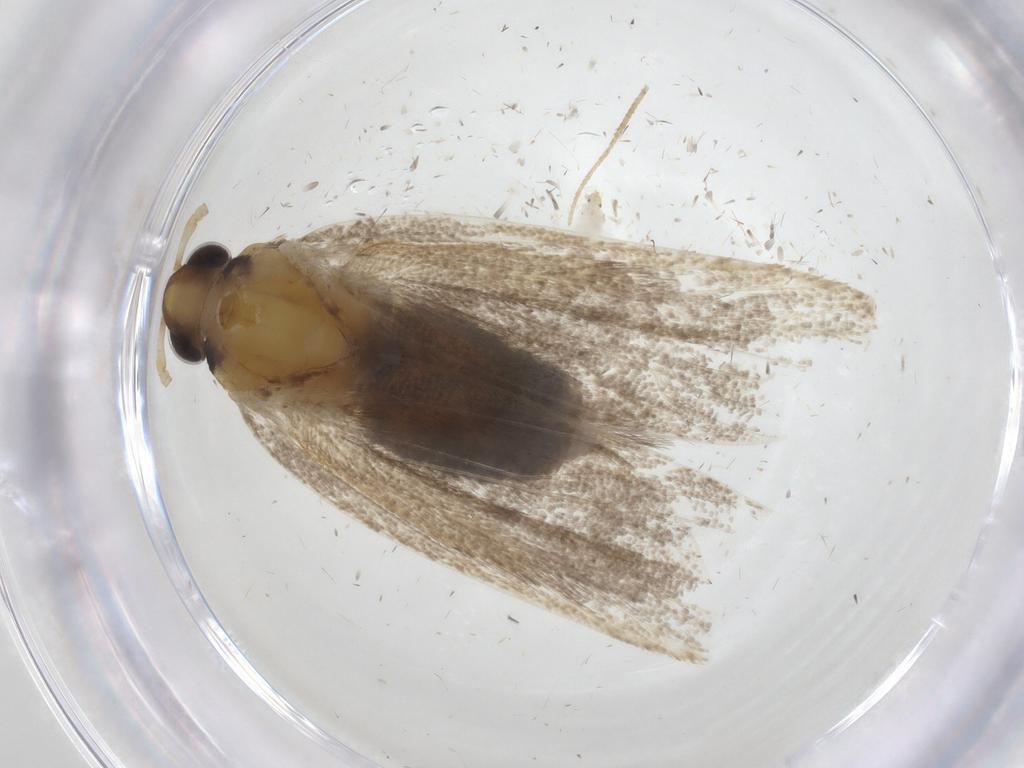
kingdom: Animalia
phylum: Arthropoda
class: Insecta
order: Lepidoptera
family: Lecithoceridae
